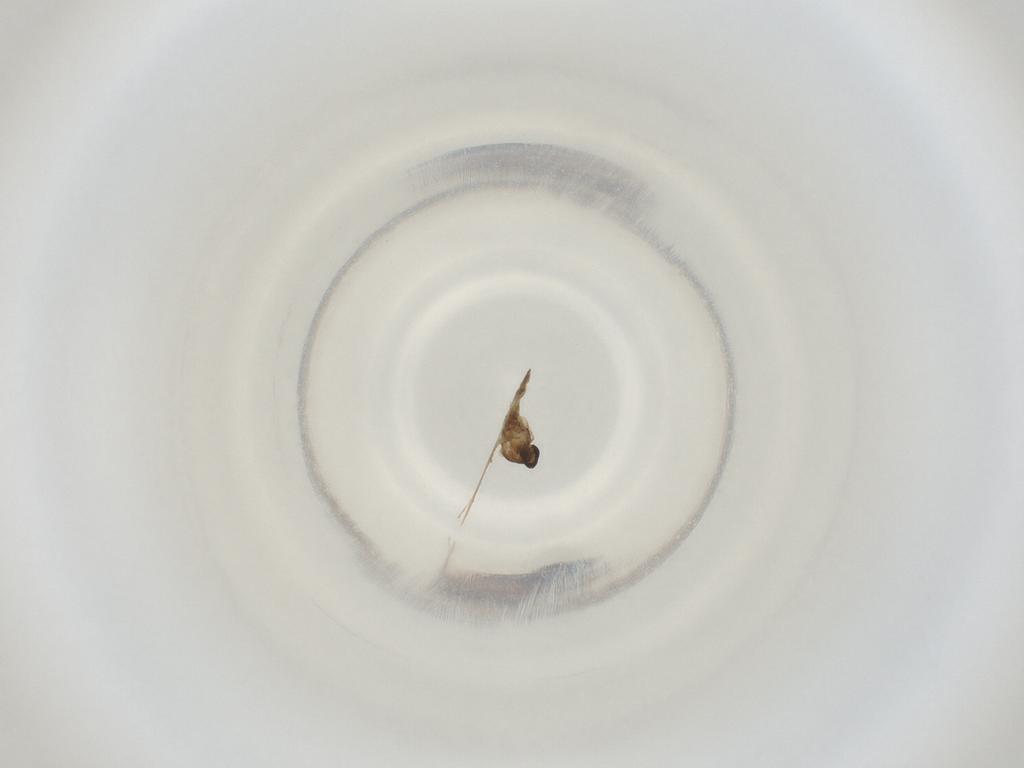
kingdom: Animalia
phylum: Arthropoda
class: Insecta
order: Diptera
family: Cecidomyiidae
